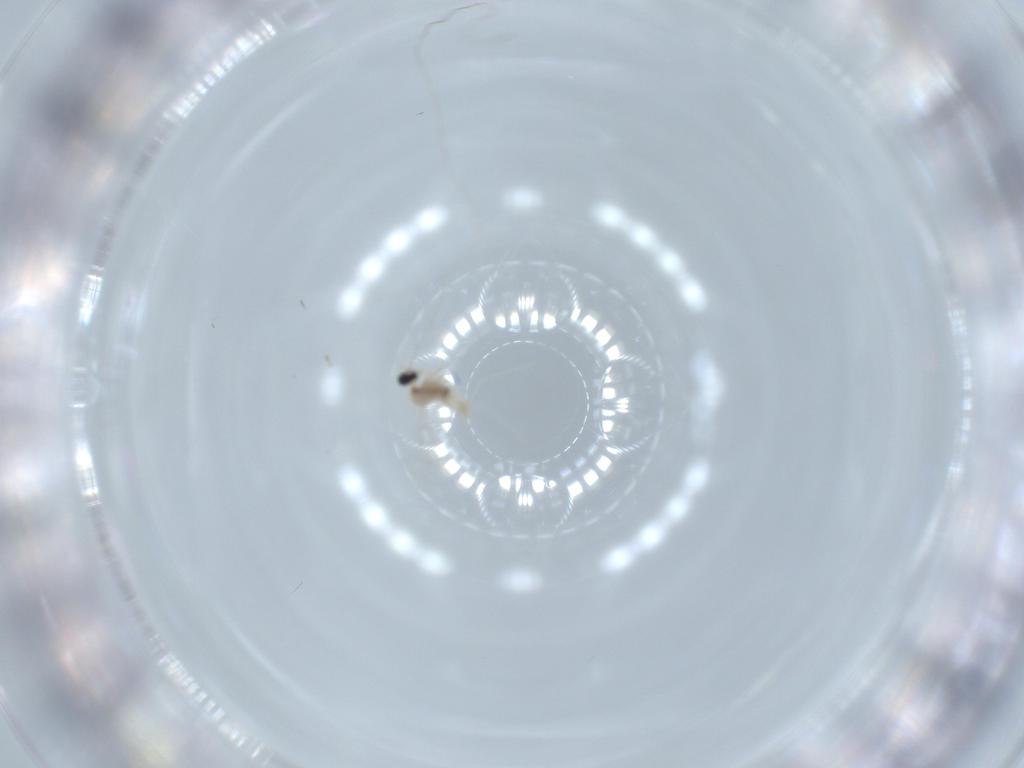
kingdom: Animalia
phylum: Arthropoda
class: Insecta
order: Diptera
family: Cecidomyiidae
